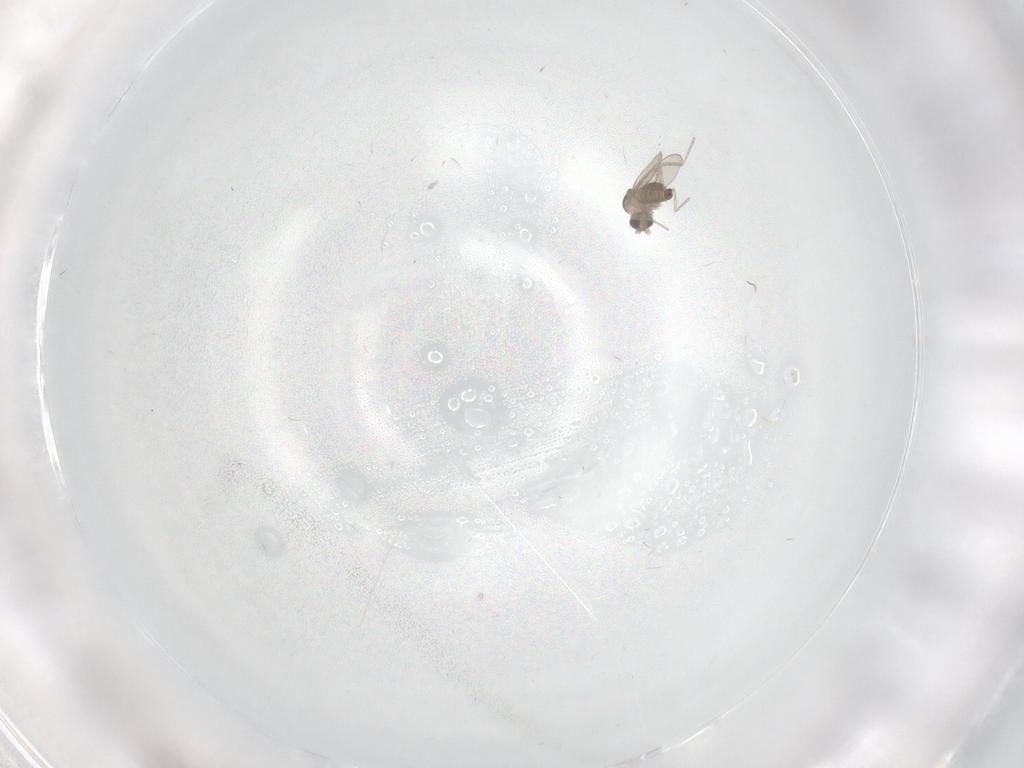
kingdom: Animalia
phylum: Arthropoda
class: Insecta
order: Diptera
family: Cecidomyiidae
